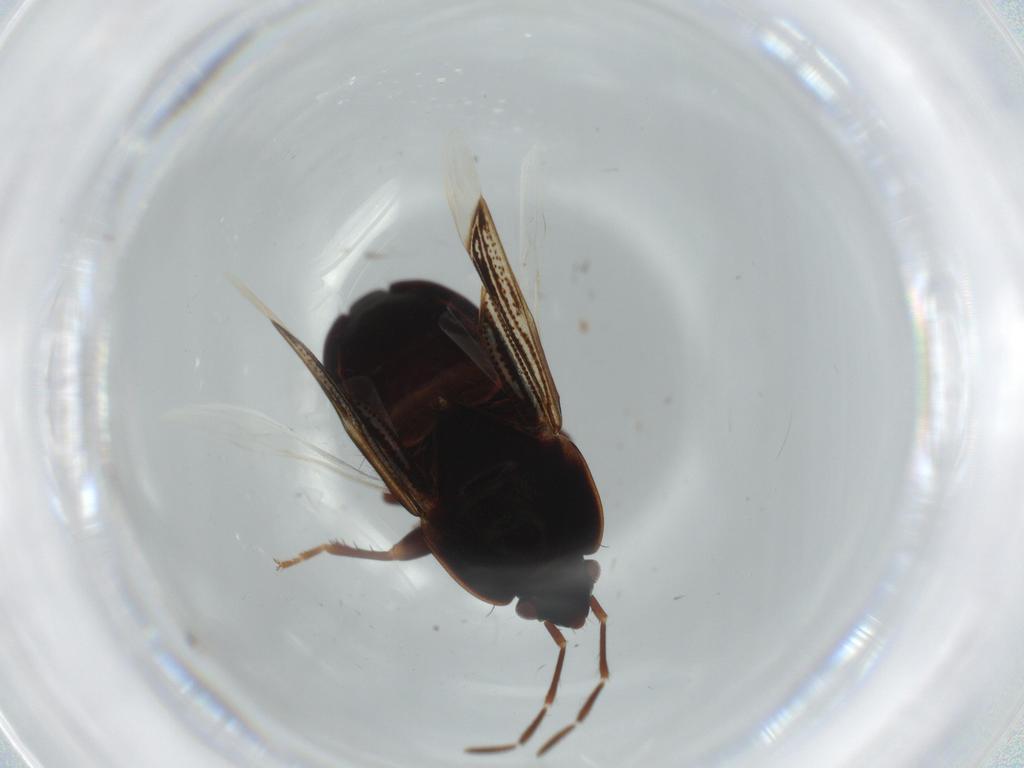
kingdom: Animalia
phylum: Arthropoda
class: Insecta
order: Hemiptera
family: Rhyparochromidae
